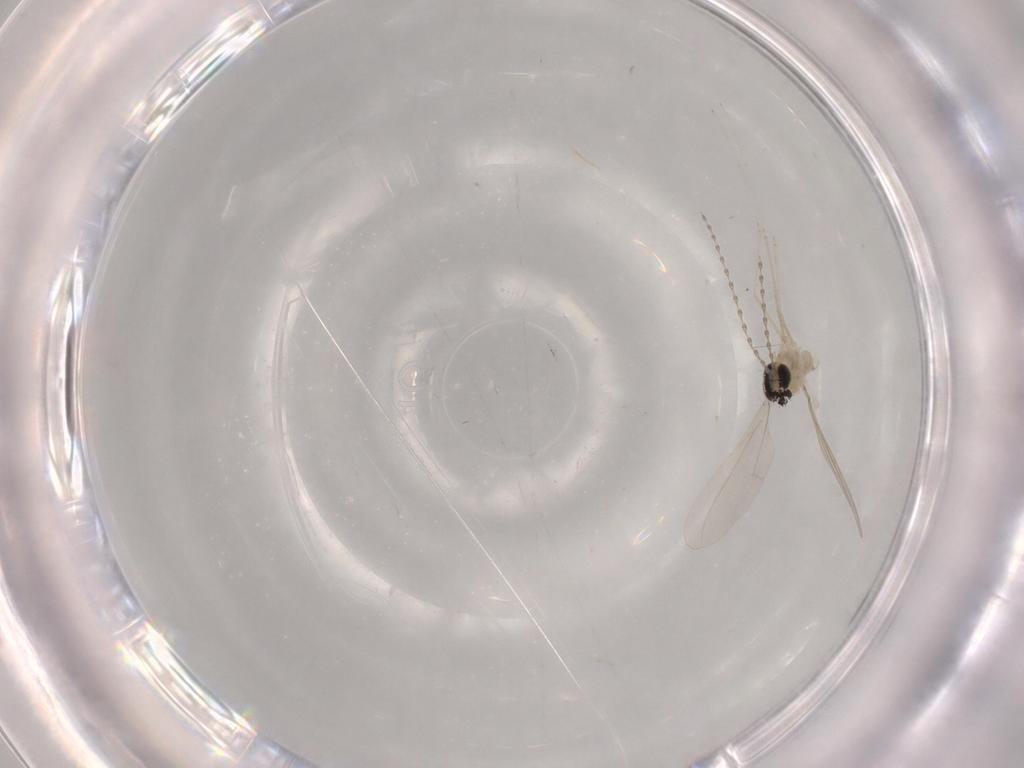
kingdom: Animalia
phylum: Arthropoda
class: Insecta
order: Diptera
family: Cecidomyiidae
